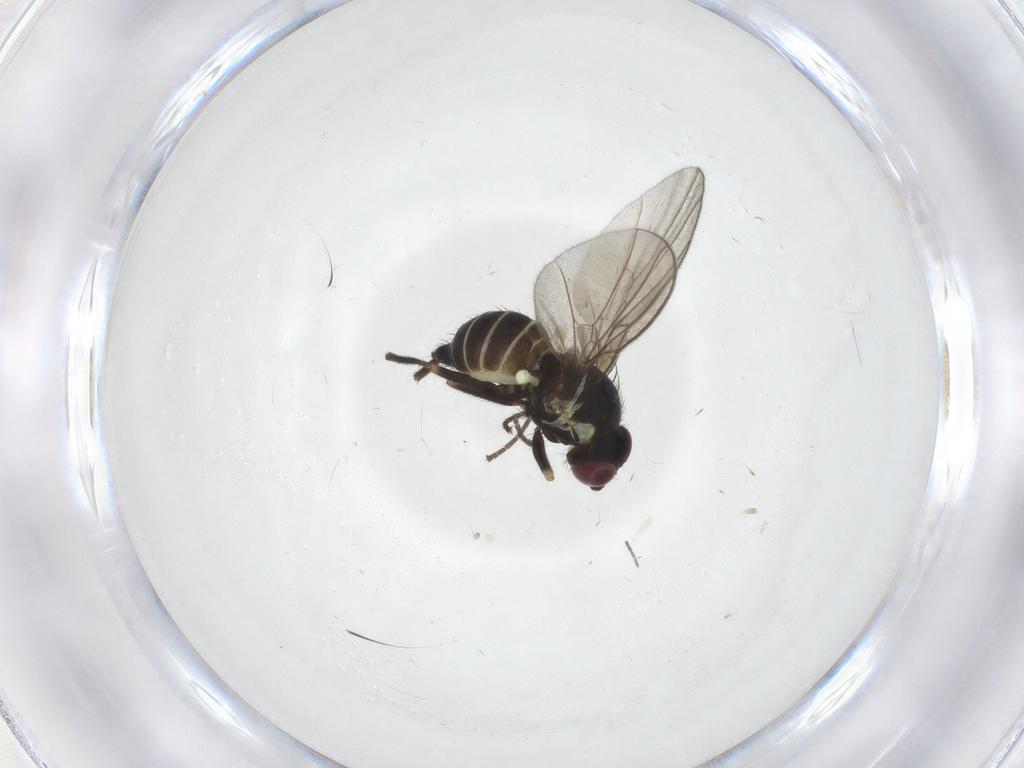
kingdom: Animalia
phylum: Arthropoda
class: Insecta
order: Diptera
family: Agromyzidae
